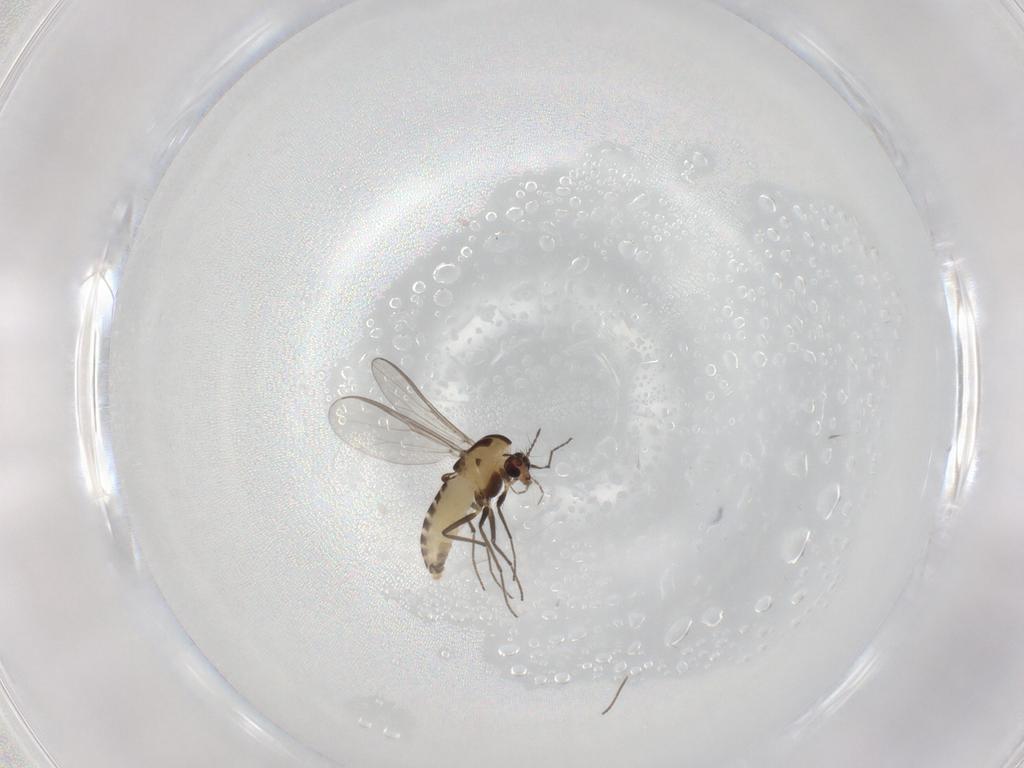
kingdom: Animalia
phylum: Arthropoda
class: Insecta
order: Diptera
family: Chironomidae
